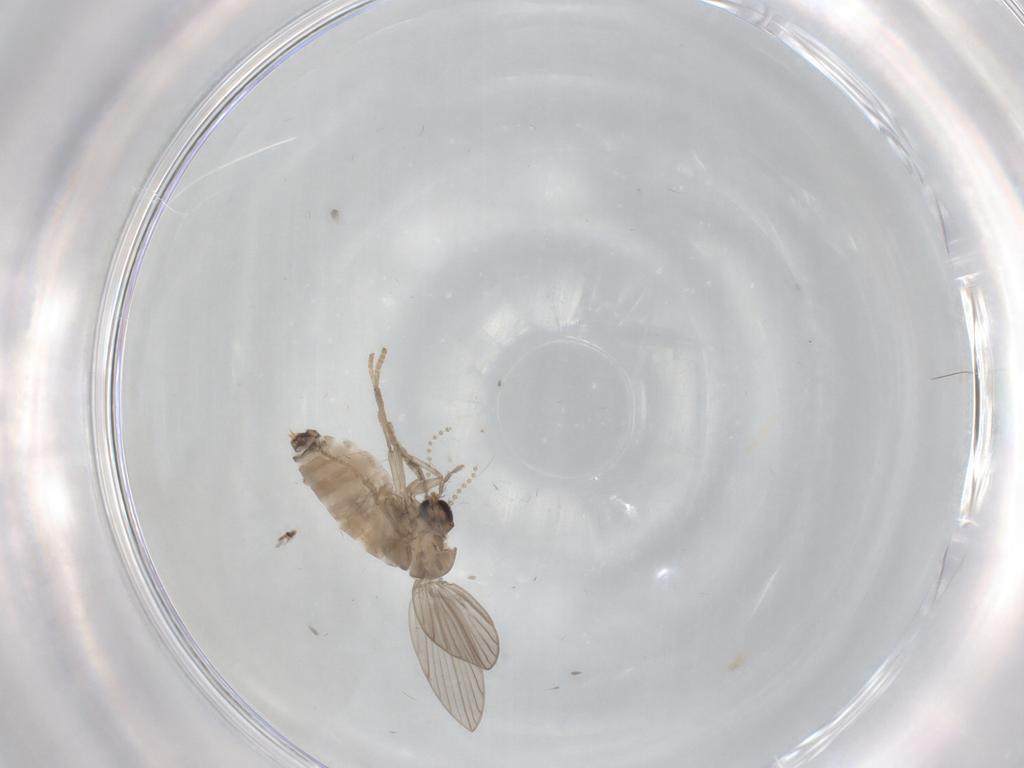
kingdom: Animalia
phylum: Arthropoda
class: Insecta
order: Diptera
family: Psychodidae
